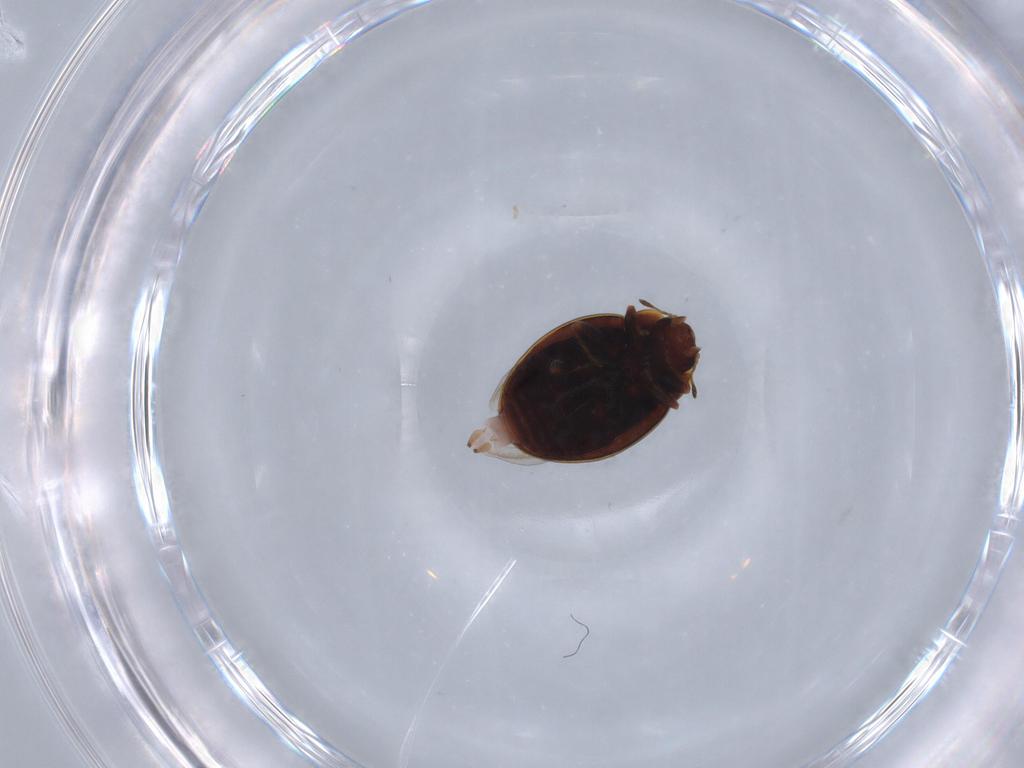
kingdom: Animalia
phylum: Arthropoda
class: Insecta
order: Coleoptera
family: Coccinellidae
